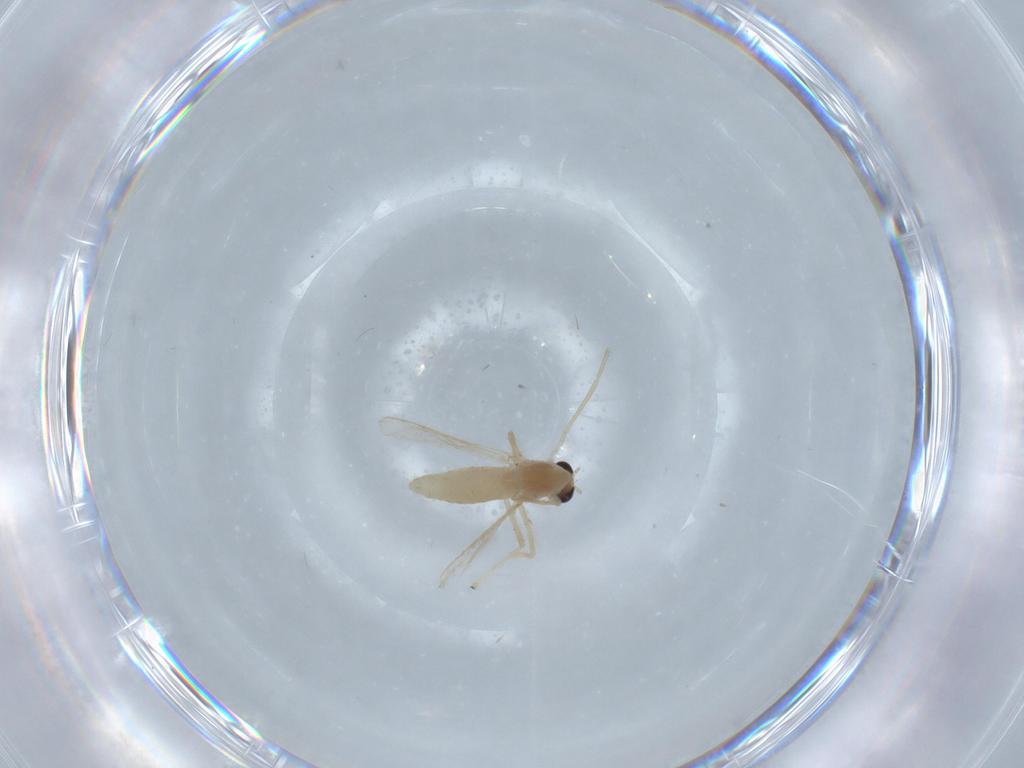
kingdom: Animalia
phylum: Arthropoda
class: Insecta
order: Diptera
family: Chironomidae
